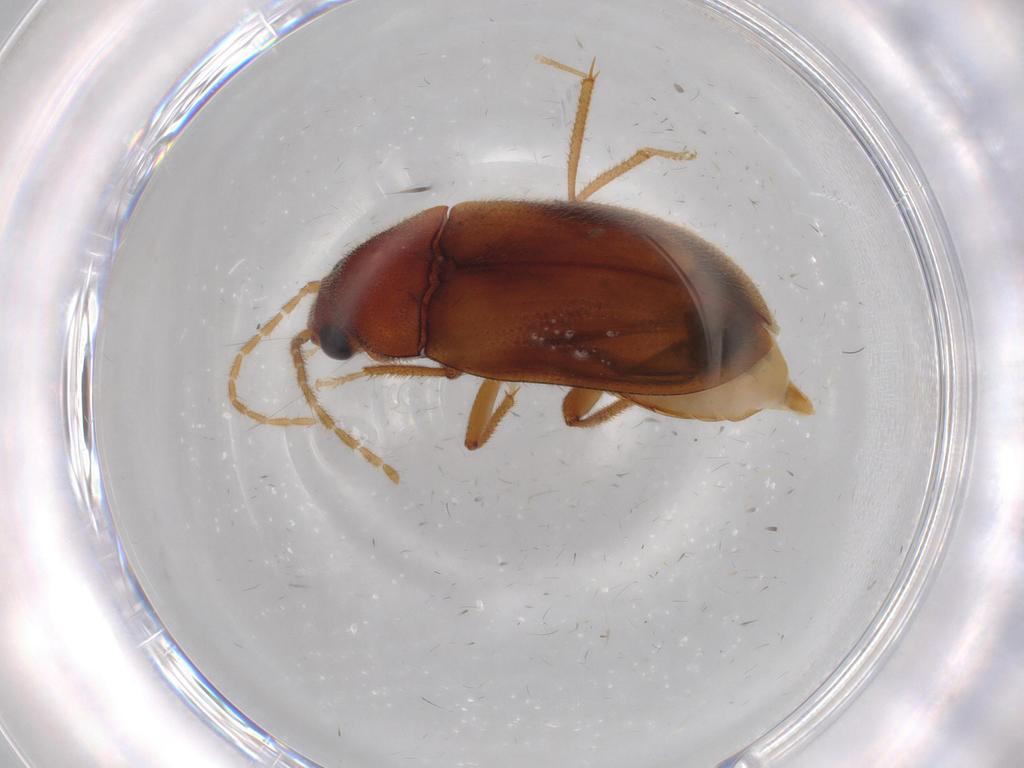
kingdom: Animalia
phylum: Arthropoda
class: Insecta
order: Coleoptera
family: Ptilodactylidae
